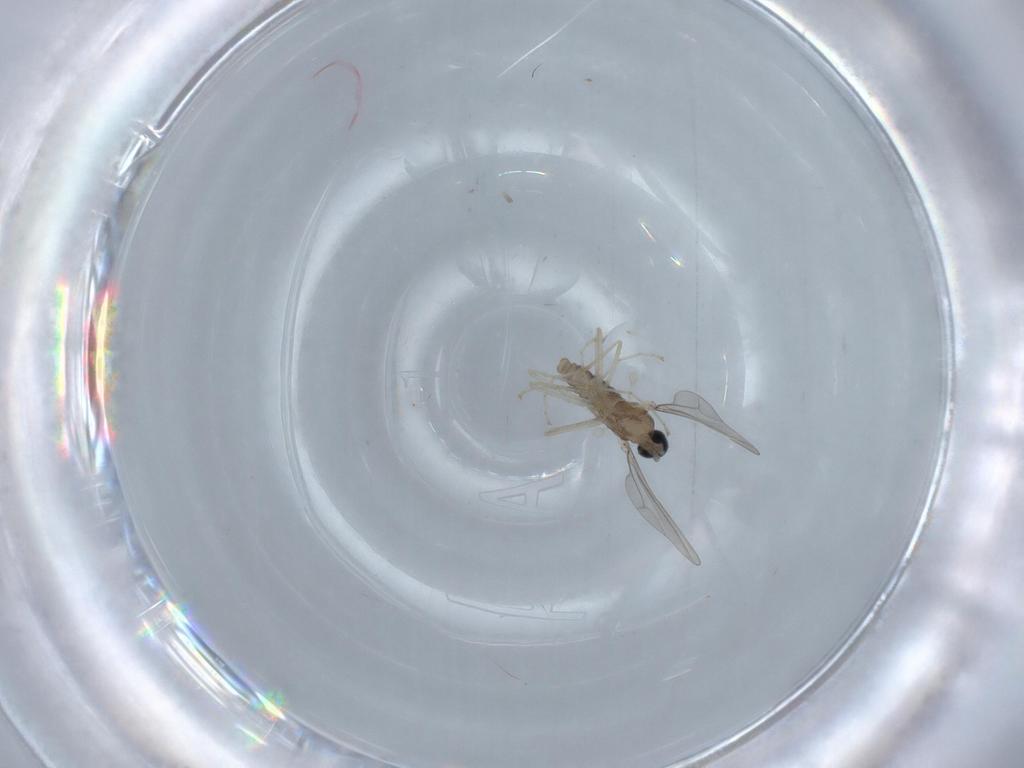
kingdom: Animalia
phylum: Arthropoda
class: Insecta
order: Diptera
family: Cecidomyiidae
